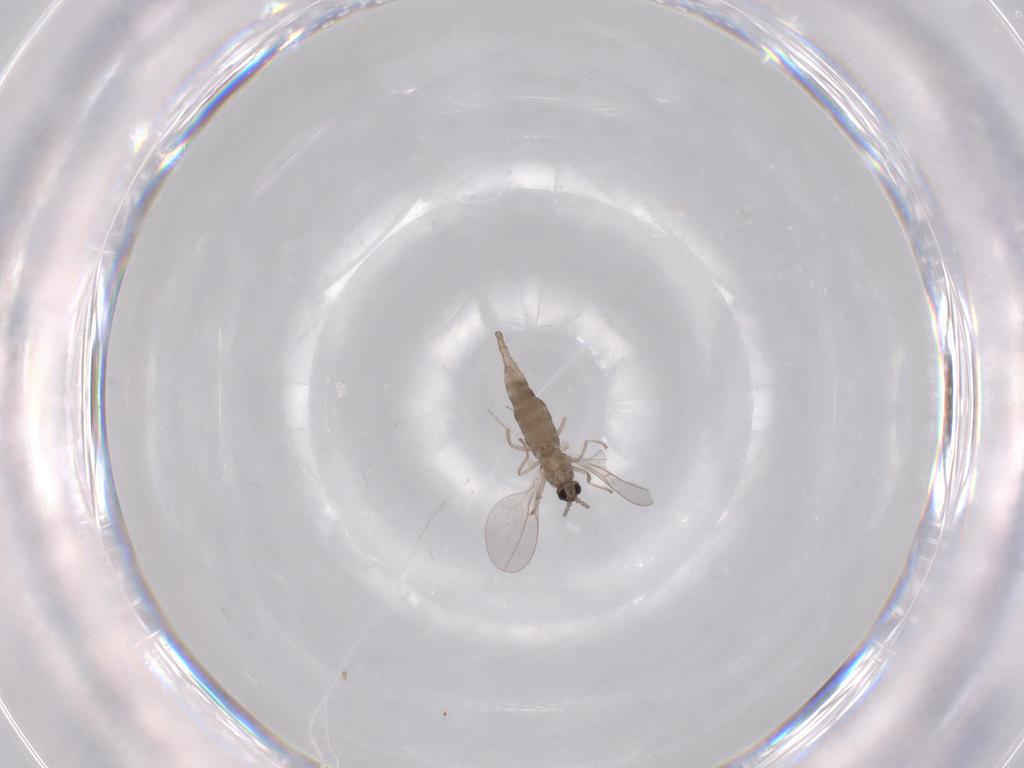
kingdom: Animalia
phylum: Arthropoda
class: Insecta
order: Diptera
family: Cecidomyiidae
